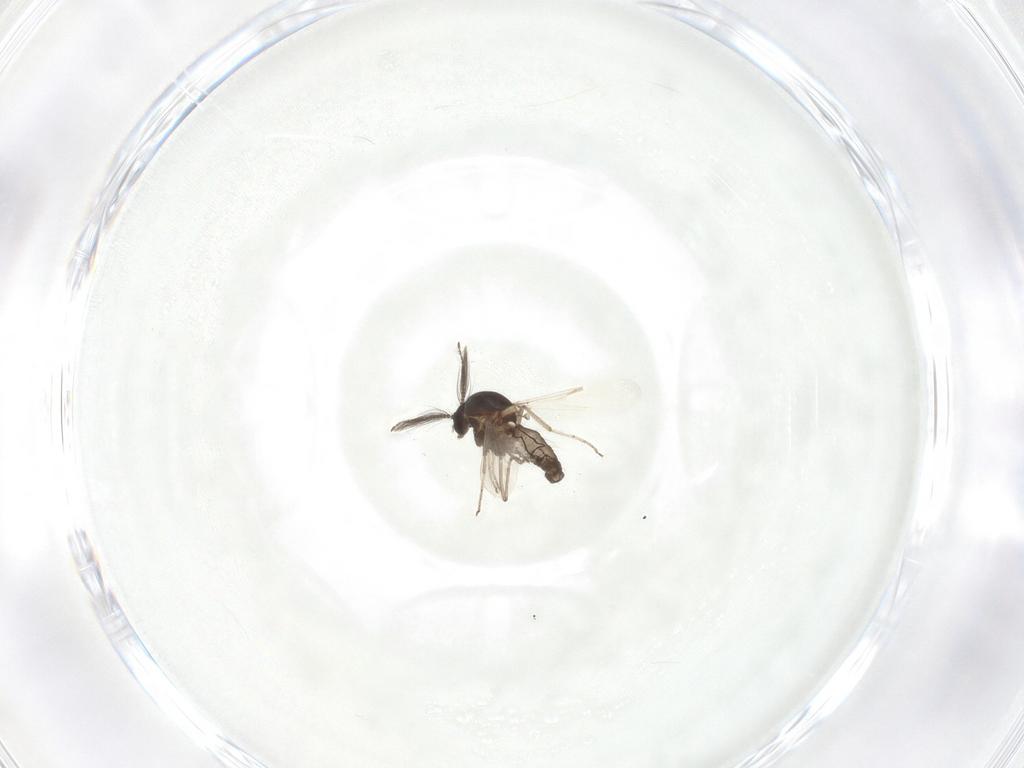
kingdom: Animalia
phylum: Arthropoda
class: Insecta
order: Diptera
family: Ceratopogonidae
